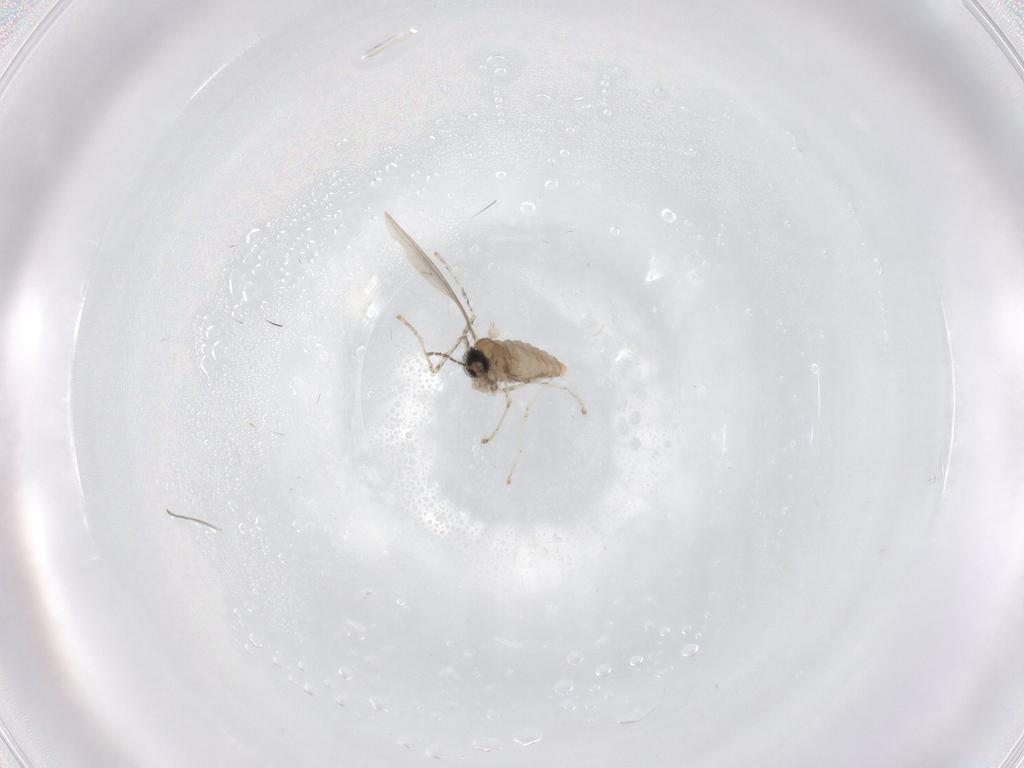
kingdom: Animalia
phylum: Arthropoda
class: Insecta
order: Diptera
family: Cecidomyiidae
